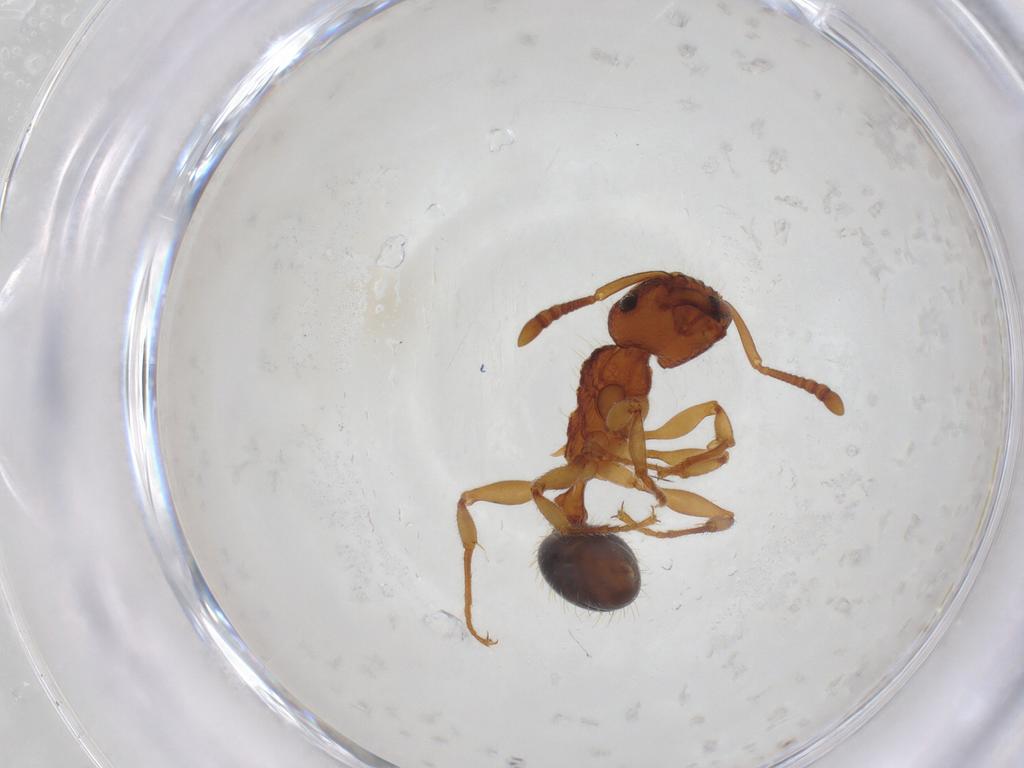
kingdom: Animalia
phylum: Arthropoda
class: Insecta
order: Hymenoptera
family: Formicidae
